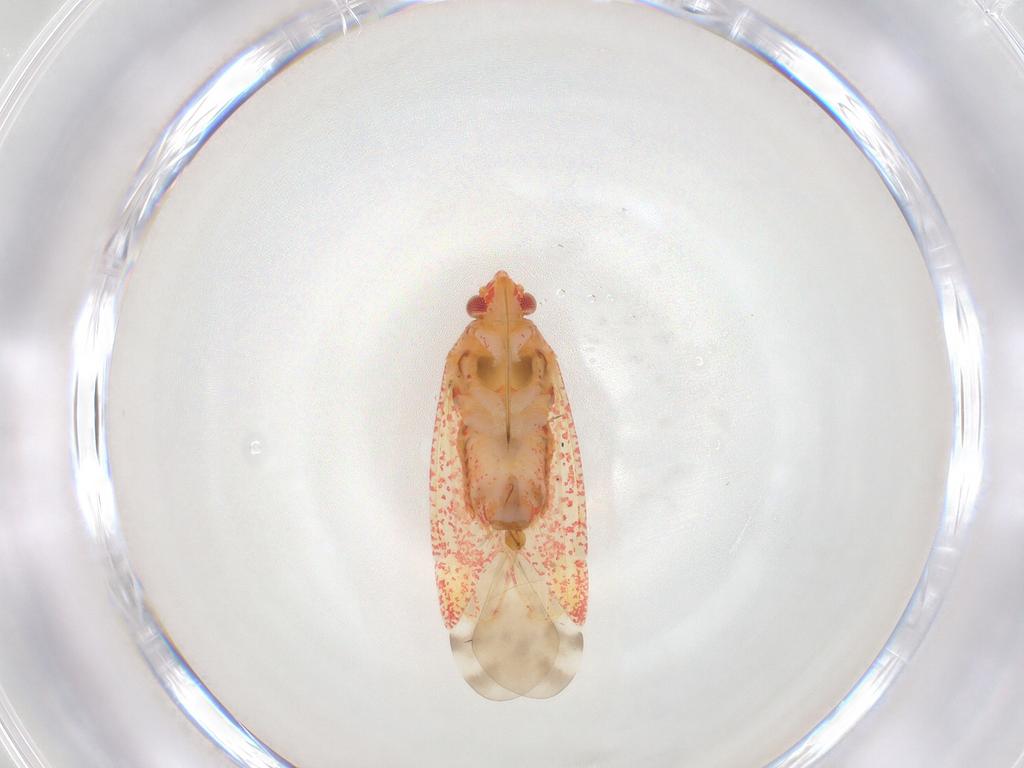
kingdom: Animalia
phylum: Arthropoda
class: Insecta
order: Hemiptera
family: Miridae
